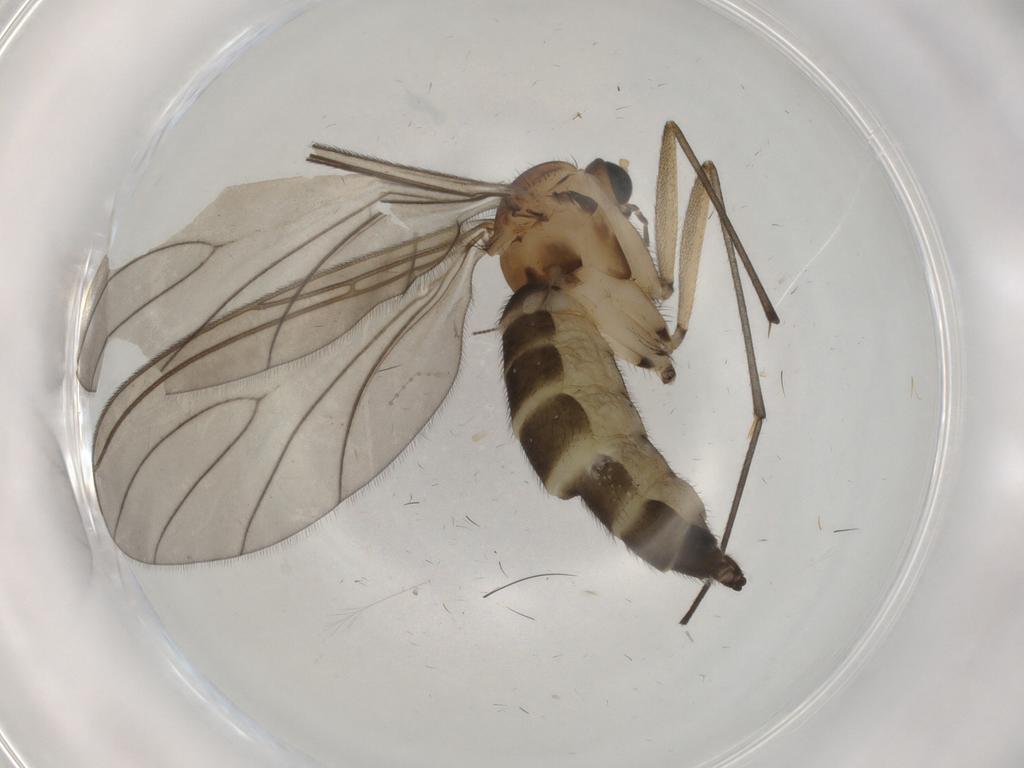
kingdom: Animalia
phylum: Arthropoda
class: Insecta
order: Diptera
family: Sciaridae
